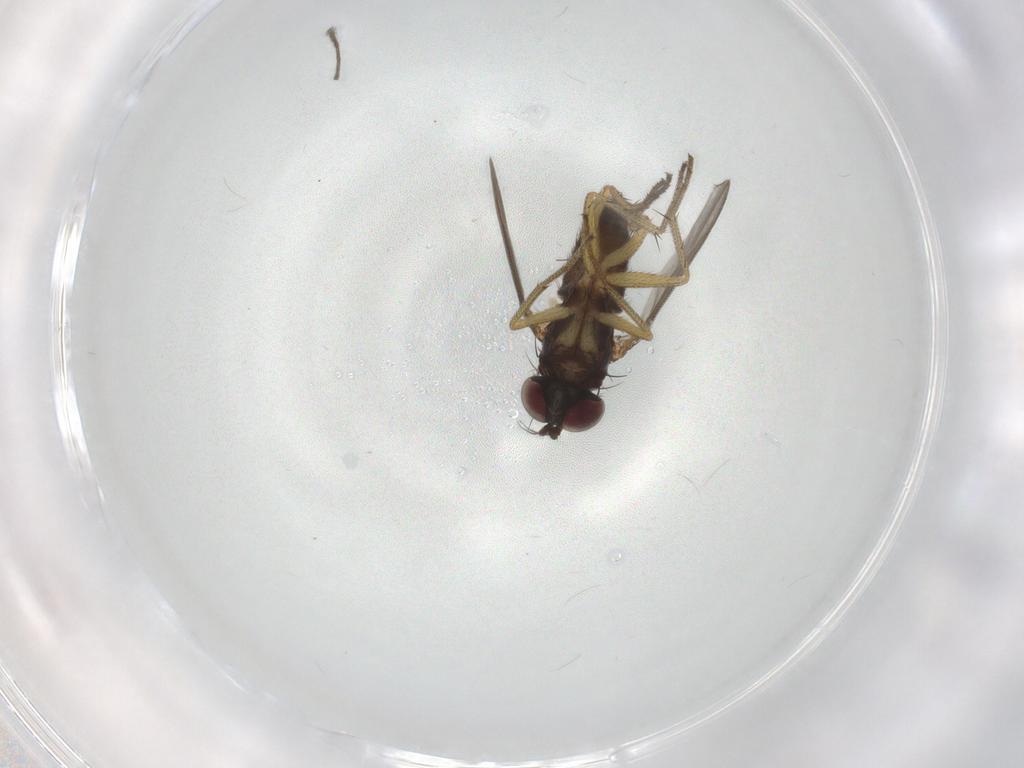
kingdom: Animalia
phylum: Arthropoda
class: Insecta
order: Diptera
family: Chironomidae
